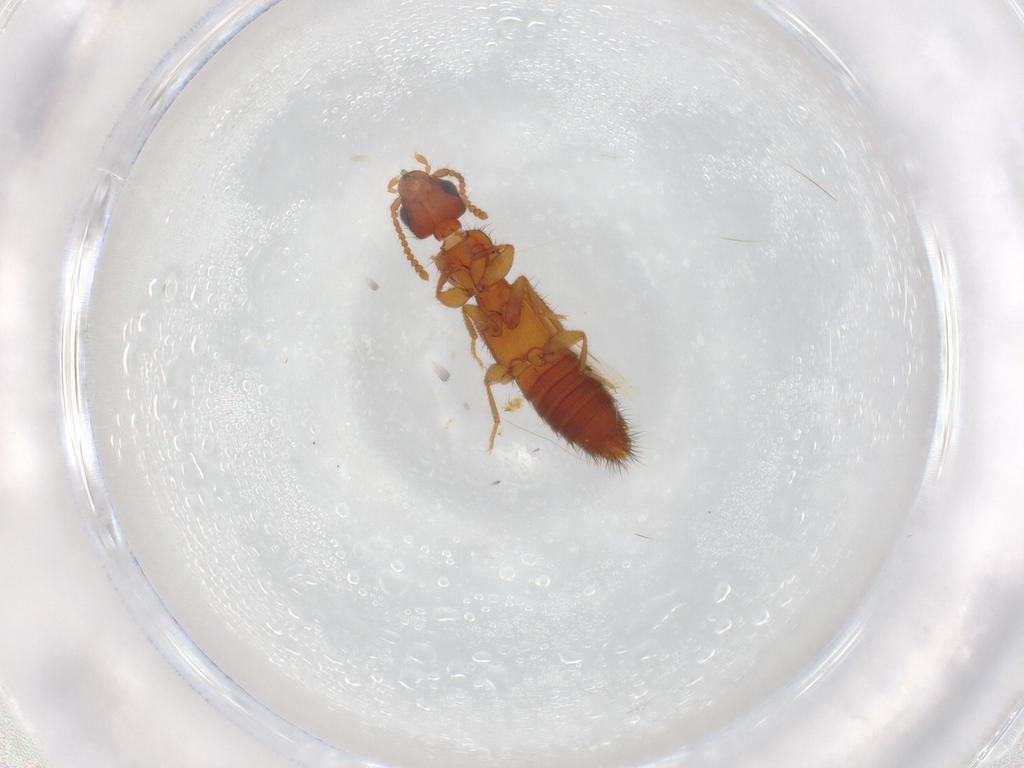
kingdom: Animalia
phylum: Arthropoda
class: Insecta
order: Coleoptera
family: Staphylinidae
